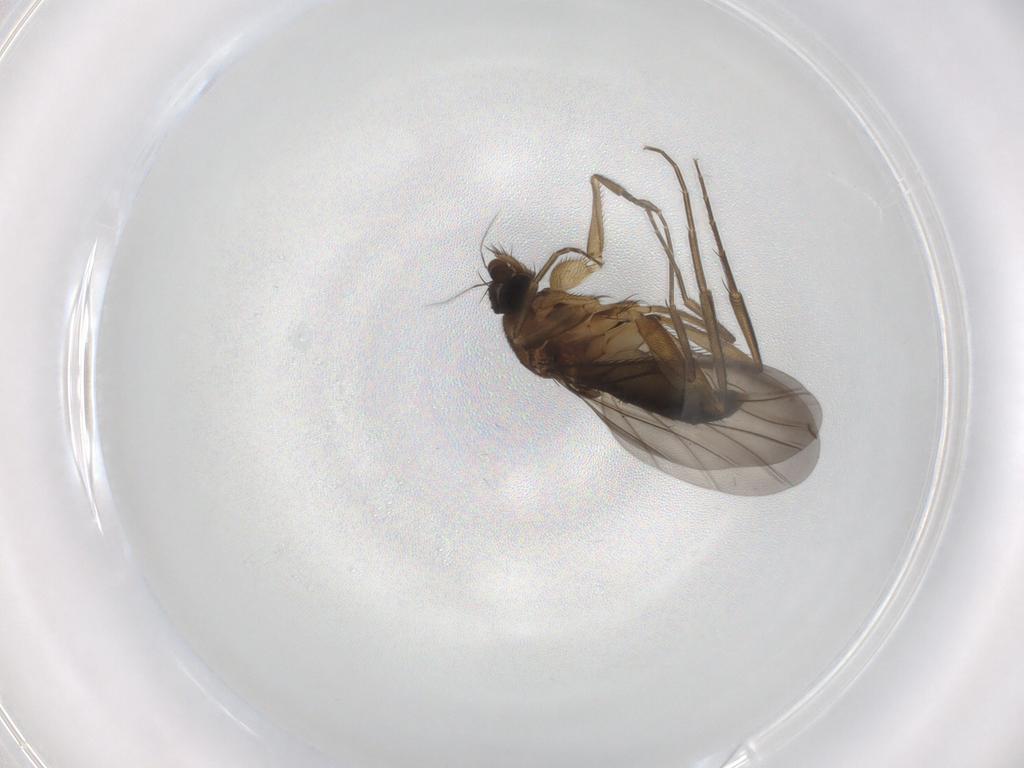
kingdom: Animalia
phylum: Arthropoda
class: Insecta
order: Diptera
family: Phoridae
